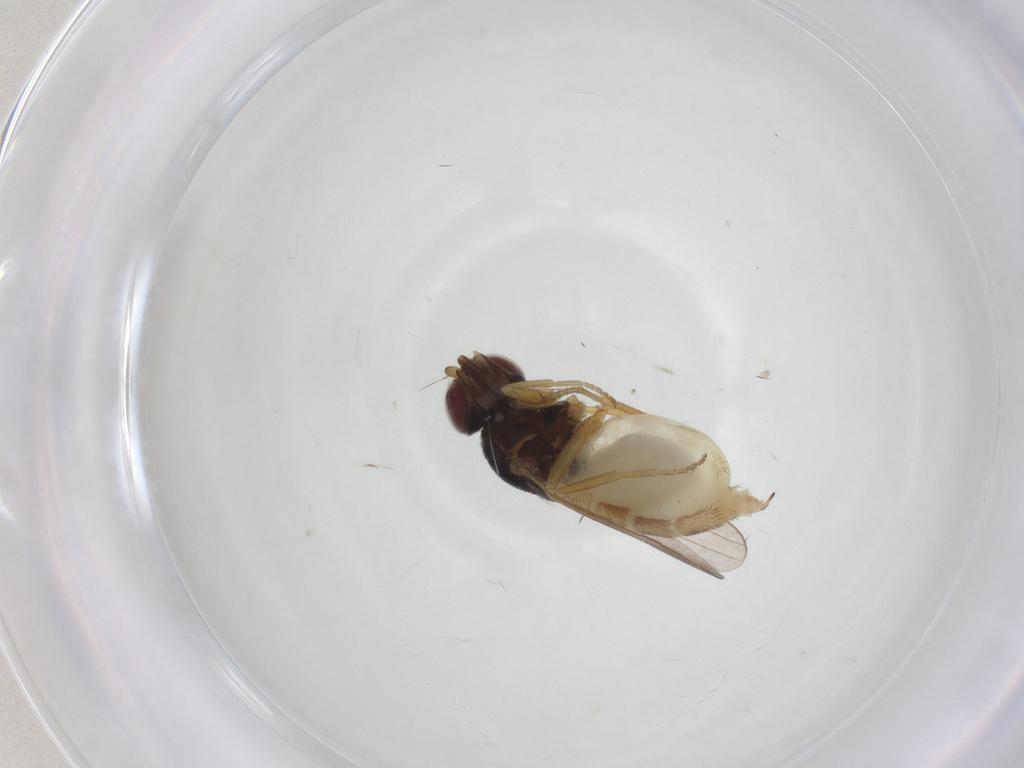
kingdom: Animalia
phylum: Arthropoda
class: Insecta
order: Diptera
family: Chloropidae
